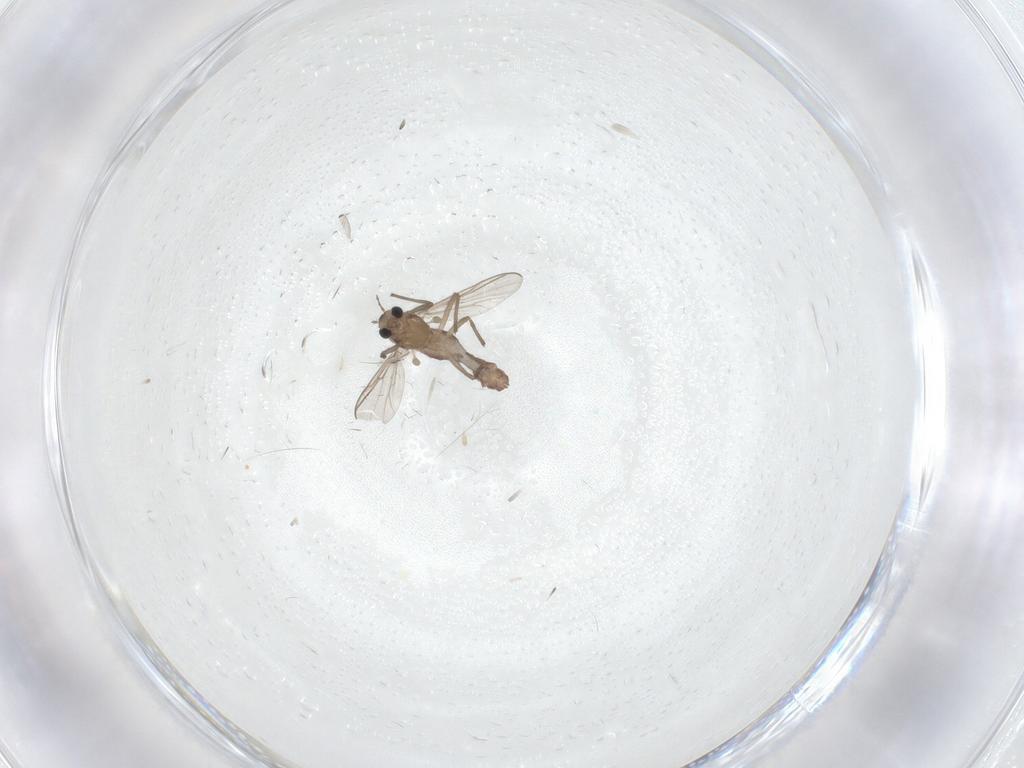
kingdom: Animalia
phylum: Arthropoda
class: Insecta
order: Diptera
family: Chironomidae
